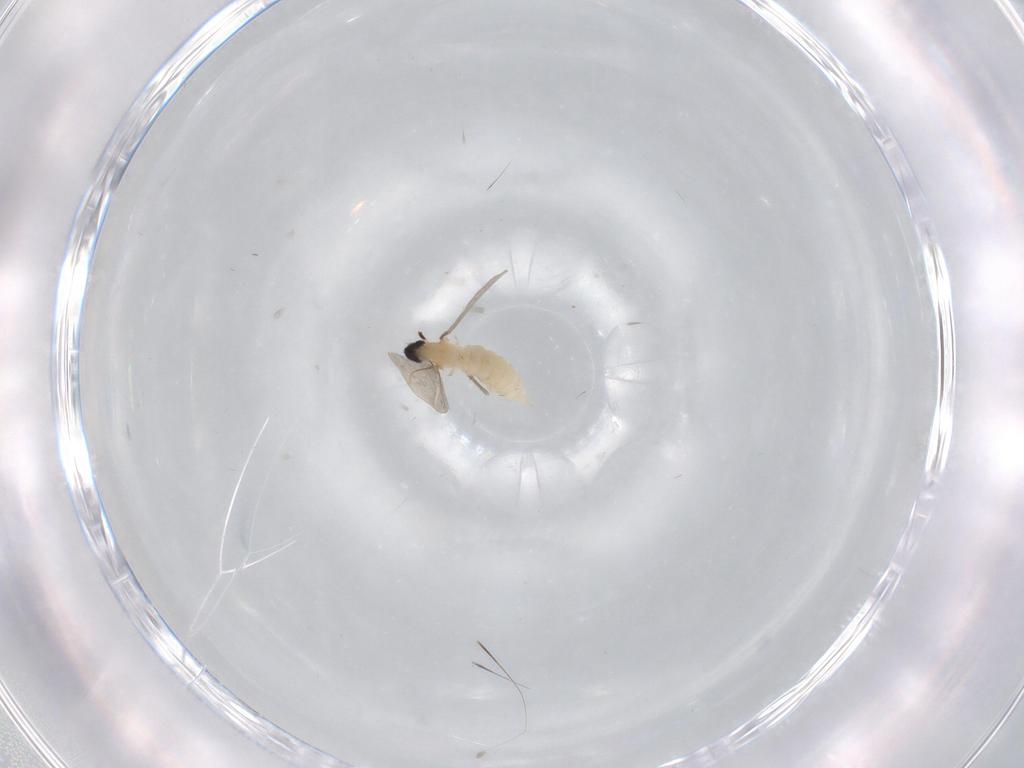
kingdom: Animalia
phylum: Arthropoda
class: Insecta
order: Diptera
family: Cecidomyiidae
